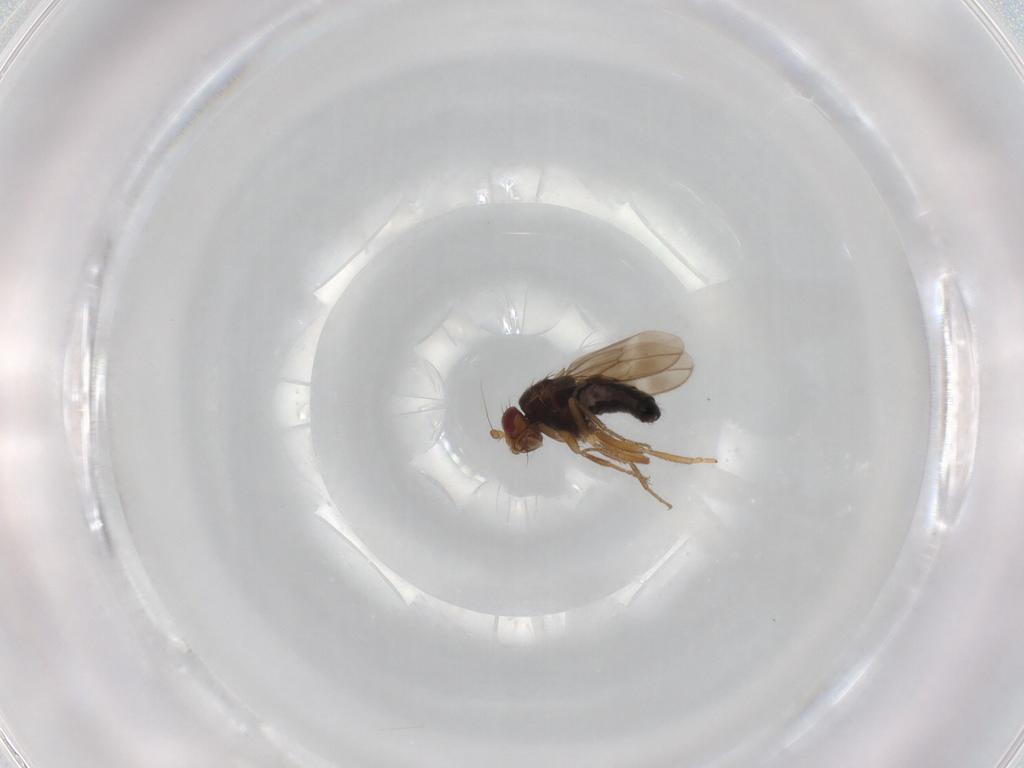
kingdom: Animalia
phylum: Arthropoda
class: Insecta
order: Diptera
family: Sphaeroceridae
